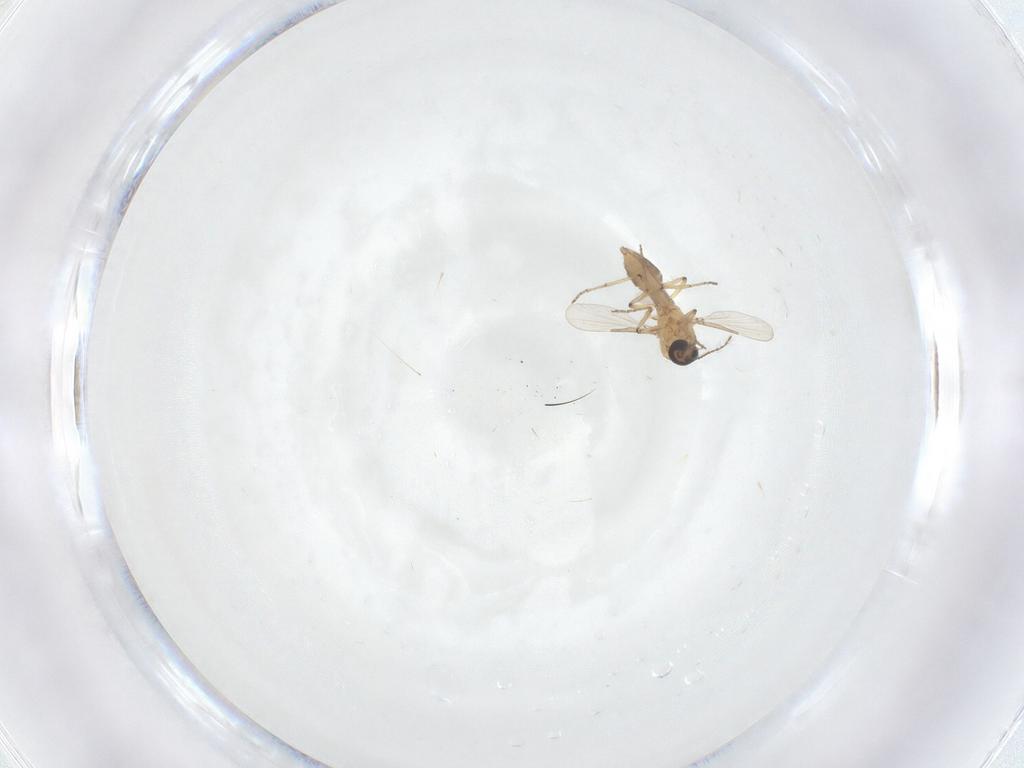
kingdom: Animalia
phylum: Arthropoda
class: Insecta
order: Diptera
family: Ceratopogonidae
